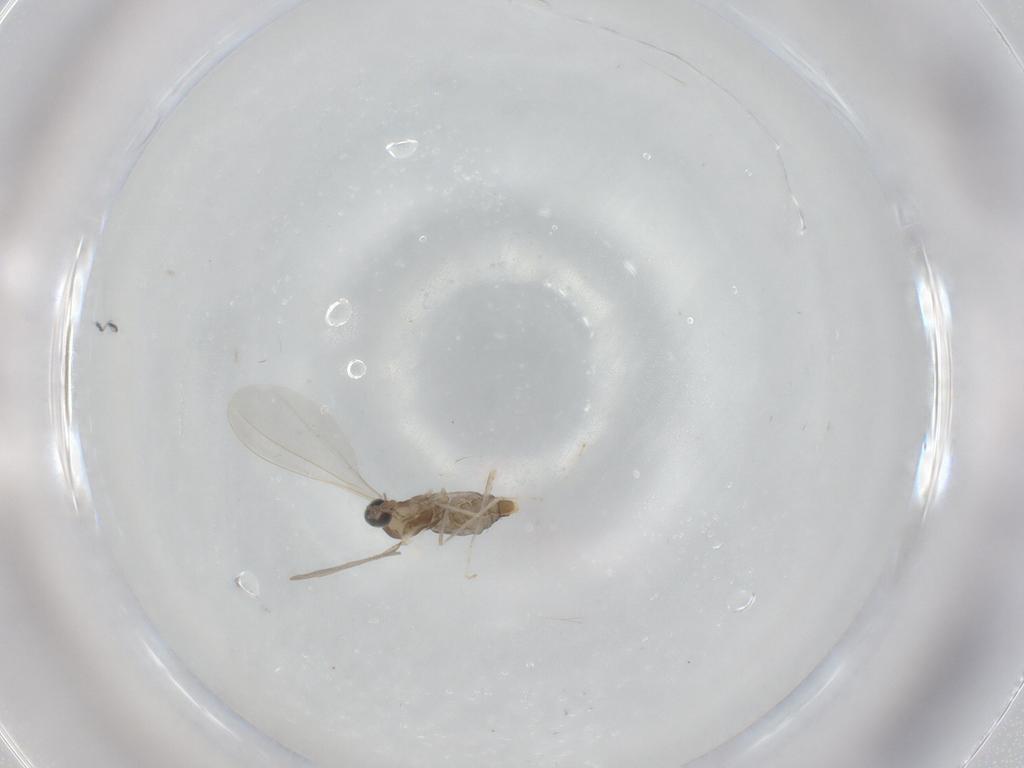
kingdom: Animalia
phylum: Arthropoda
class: Insecta
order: Diptera
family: Cecidomyiidae
